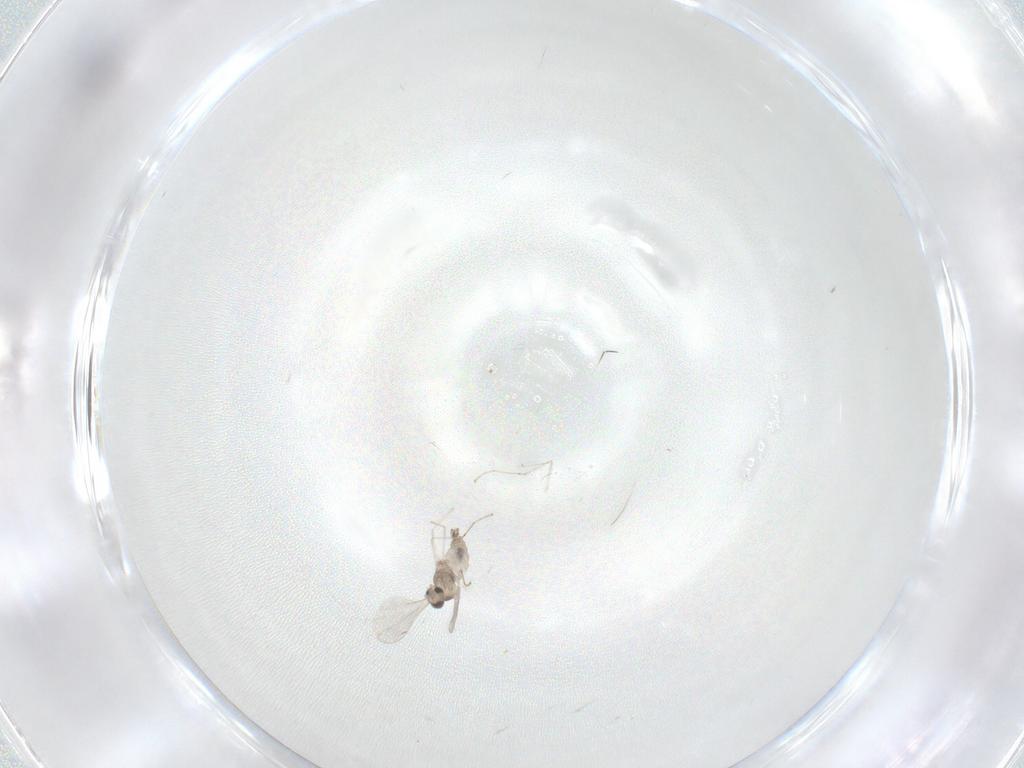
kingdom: Animalia
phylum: Arthropoda
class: Insecta
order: Diptera
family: Cecidomyiidae
